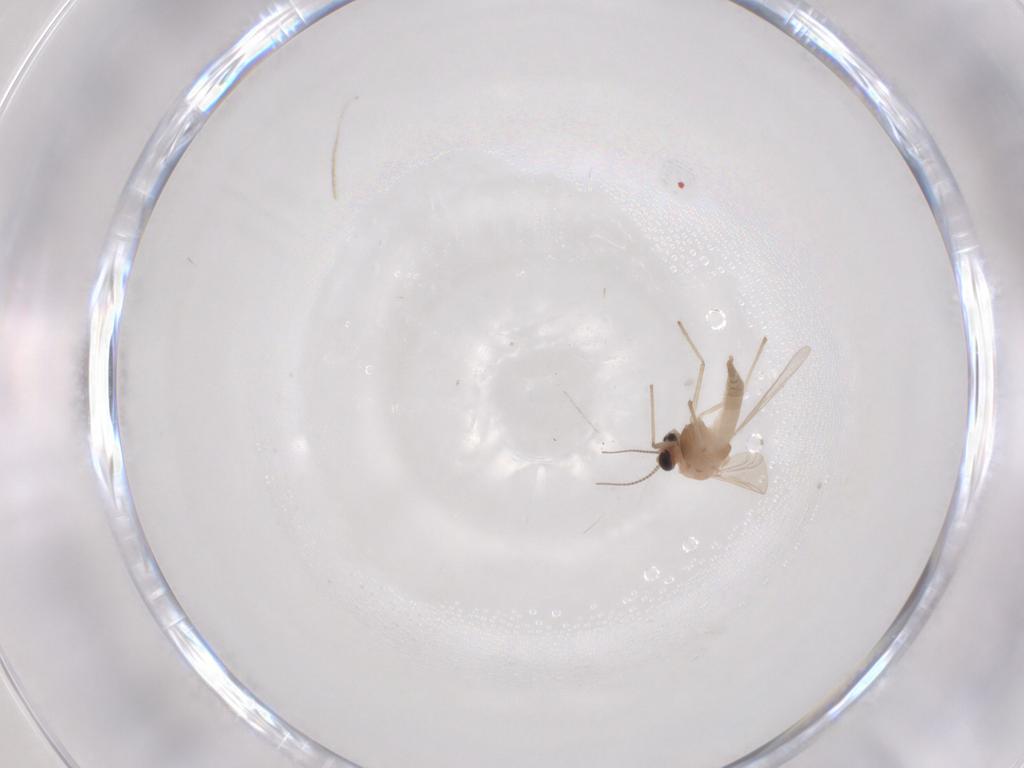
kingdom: Animalia
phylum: Arthropoda
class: Insecta
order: Diptera
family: Chironomidae
